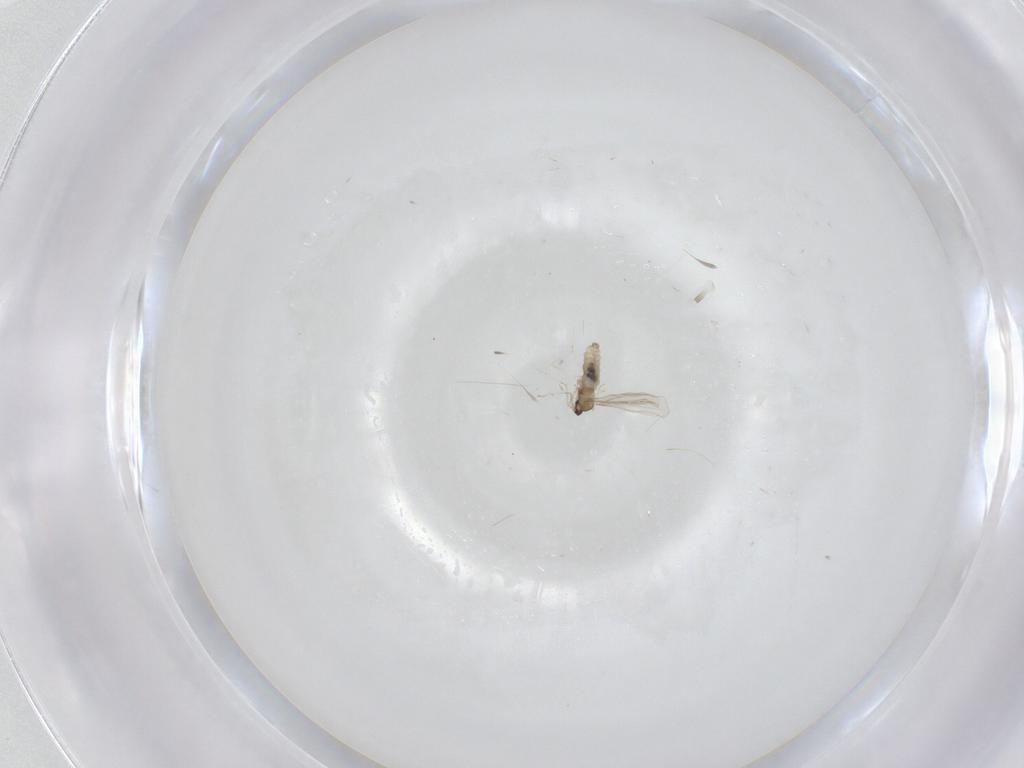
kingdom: Animalia
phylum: Arthropoda
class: Insecta
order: Diptera
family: Cecidomyiidae
